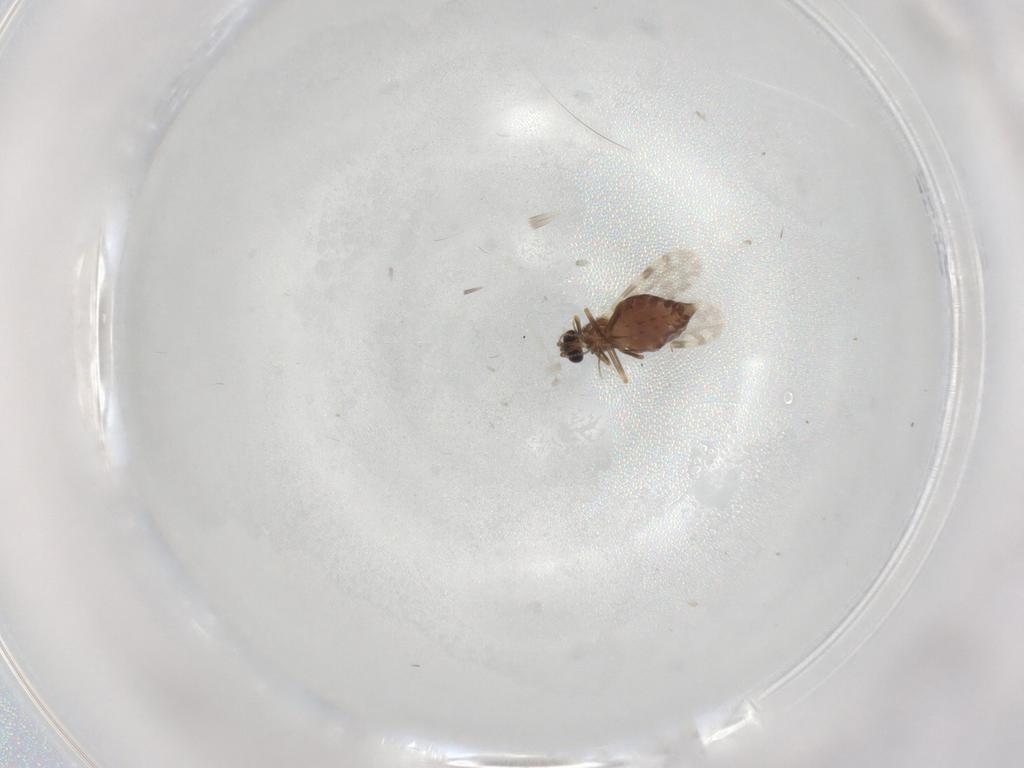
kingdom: Animalia
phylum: Arthropoda
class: Insecta
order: Diptera
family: Ceratopogonidae
